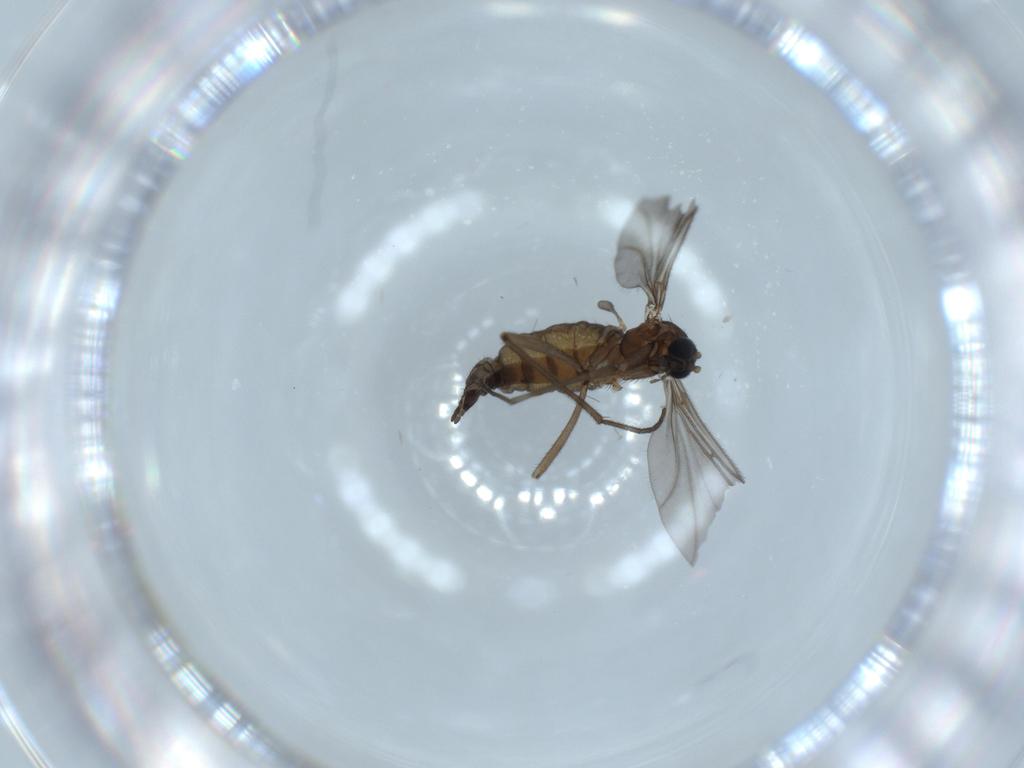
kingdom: Animalia
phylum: Arthropoda
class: Insecta
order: Diptera
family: Sciaridae
